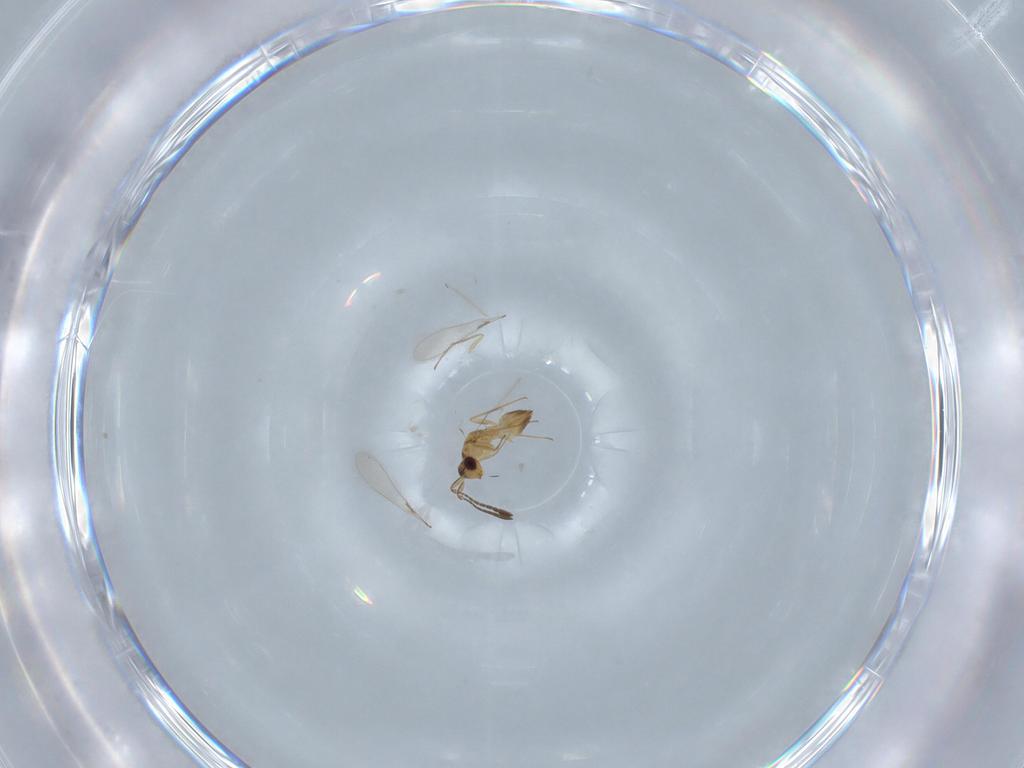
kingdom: Animalia
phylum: Arthropoda
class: Insecta
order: Hymenoptera
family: Mymaridae
